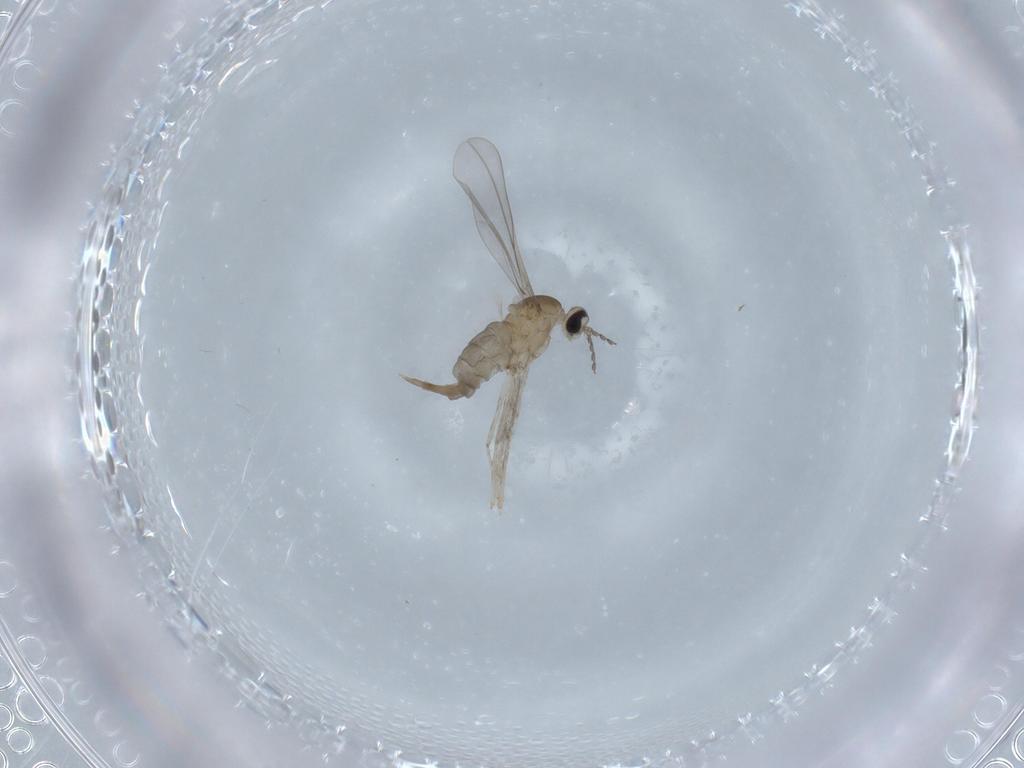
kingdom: Animalia
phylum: Arthropoda
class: Insecta
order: Diptera
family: Cecidomyiidae
